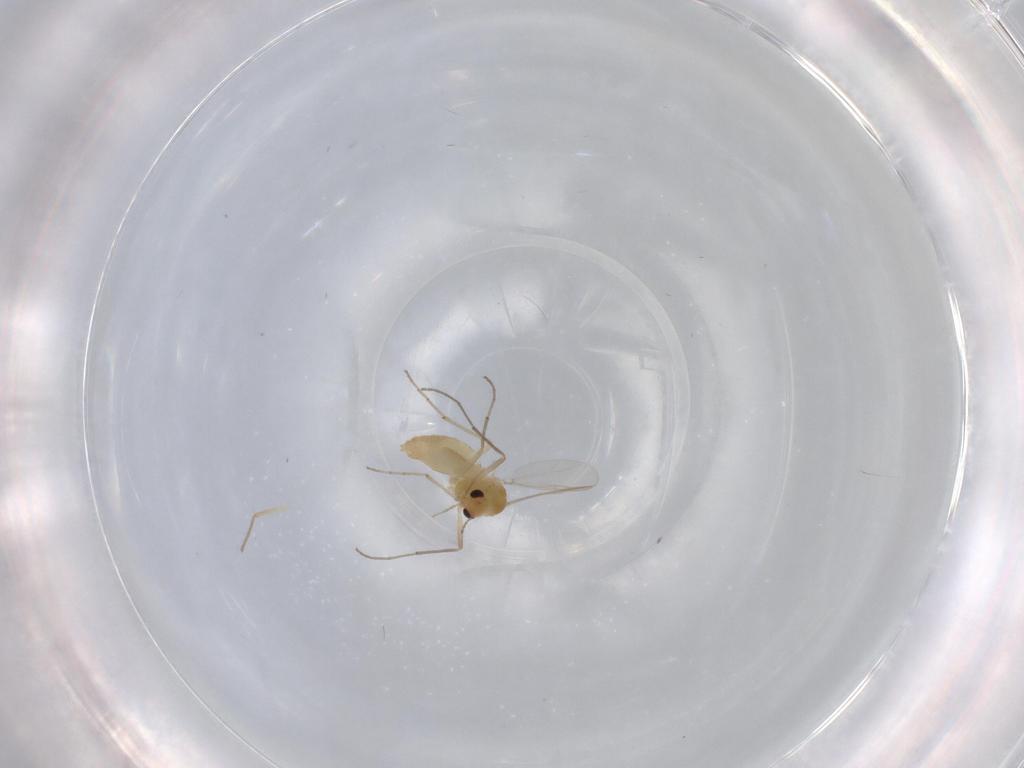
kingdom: Animalia
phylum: Arthropoda
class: Insecta
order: Diptera
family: Chironomidae
